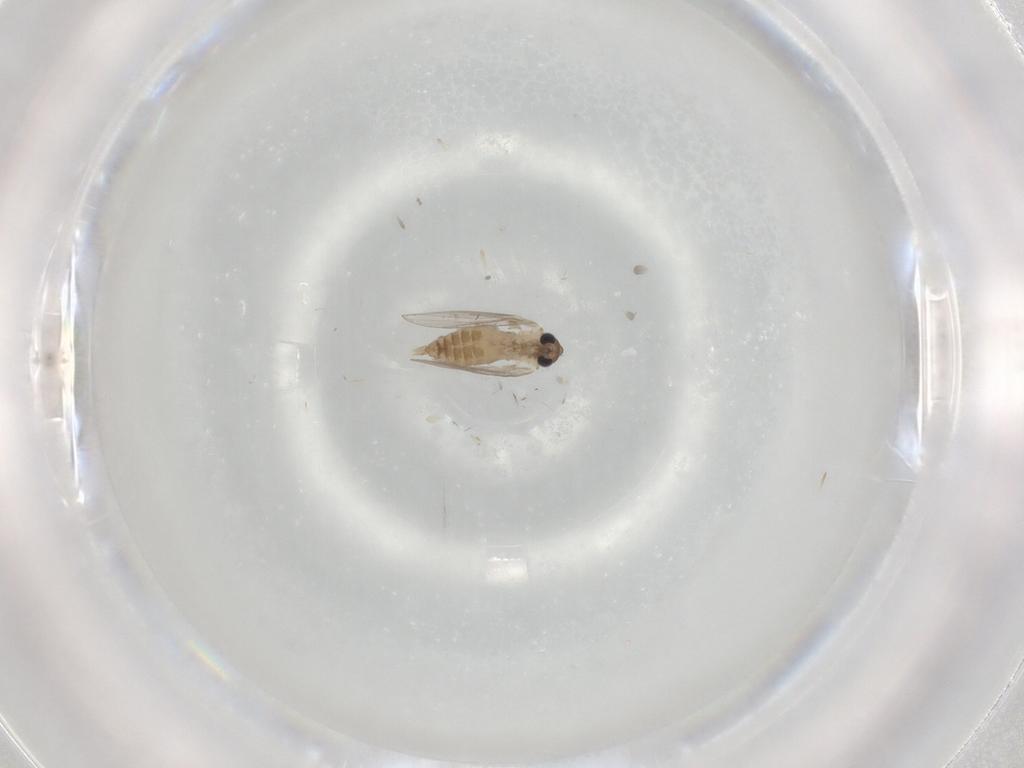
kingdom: Animalia
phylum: Arthropoda
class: Insecta
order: Diptera
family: Psychodidae
